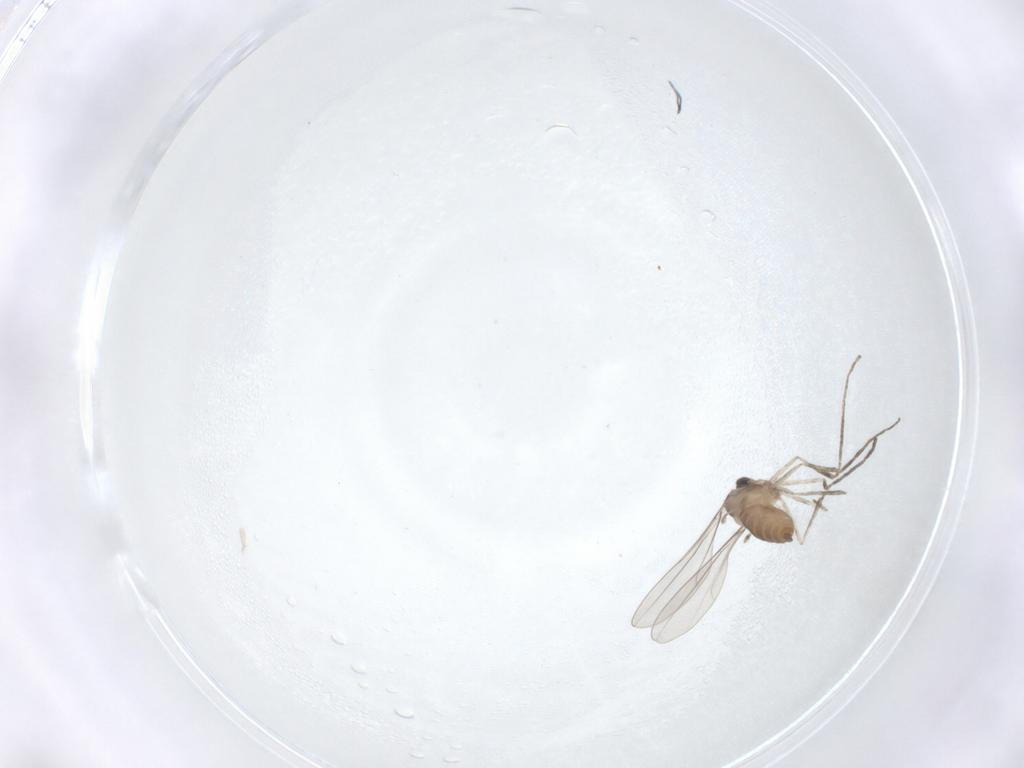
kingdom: Animalia
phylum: Arthropoda
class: Insecta
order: Diptera
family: Cecidomyiidae
